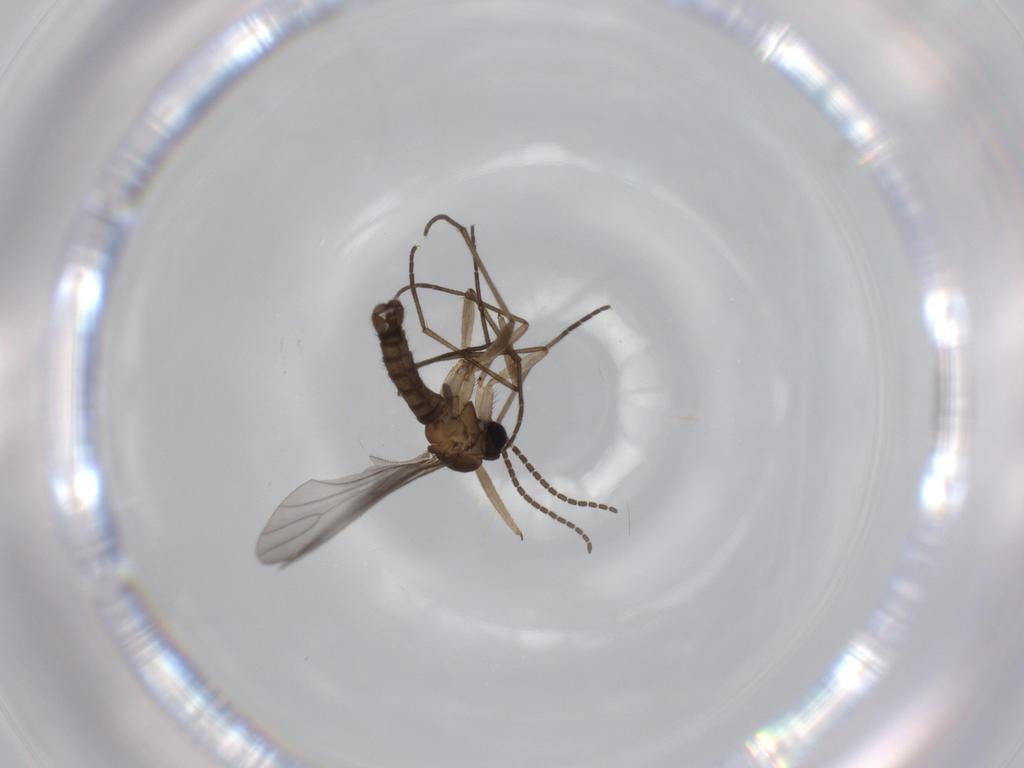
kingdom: Animalia
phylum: Arthropoda
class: Insecta
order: Diptera
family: Sciaridae
